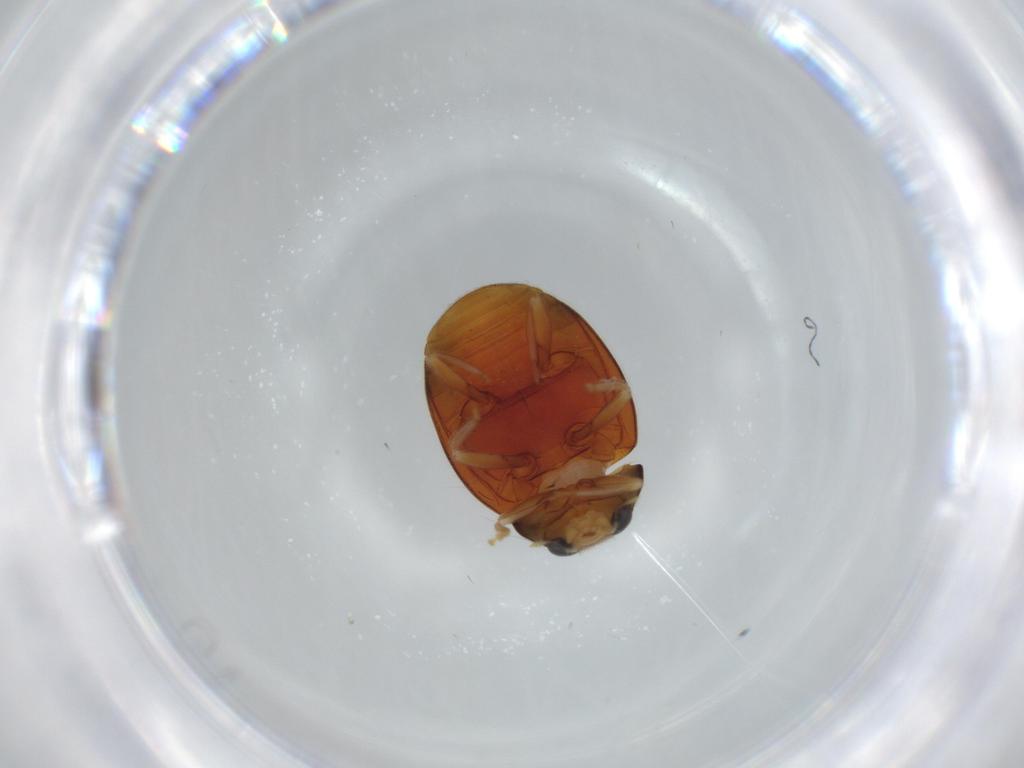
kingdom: Animalia
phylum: Arthropoda
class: Insecta
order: Coleoptera
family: Coccinellidae
